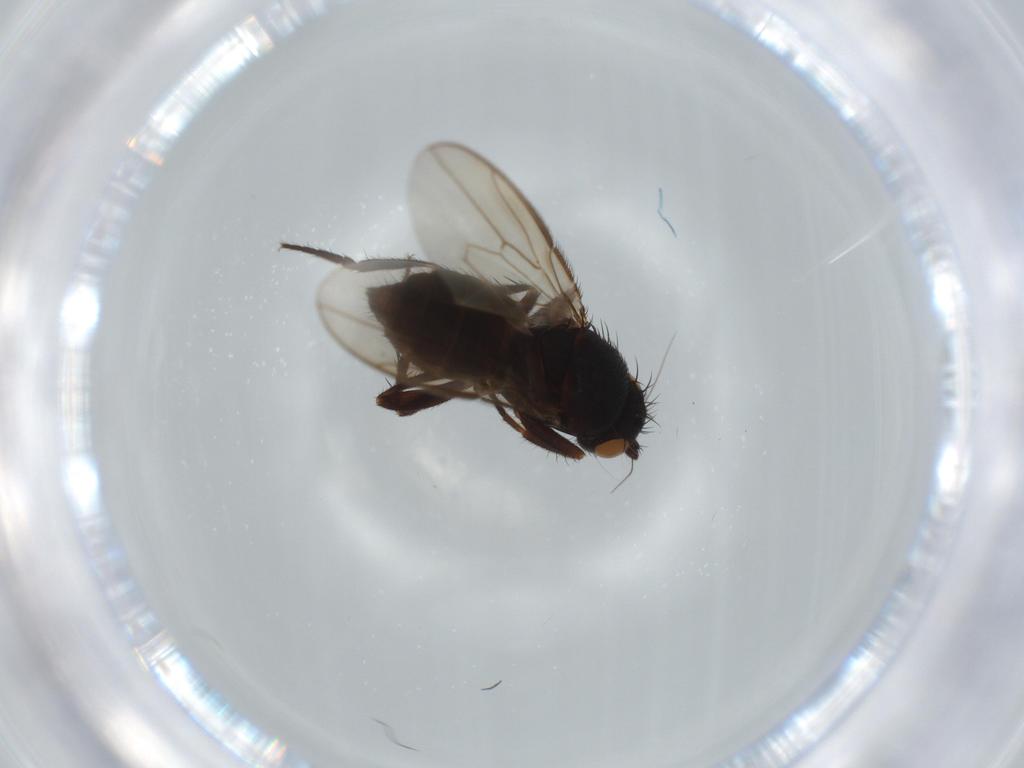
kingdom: Animalia
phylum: Arthropoda
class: Insecta
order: Diptera
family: Sphaeroceridae
